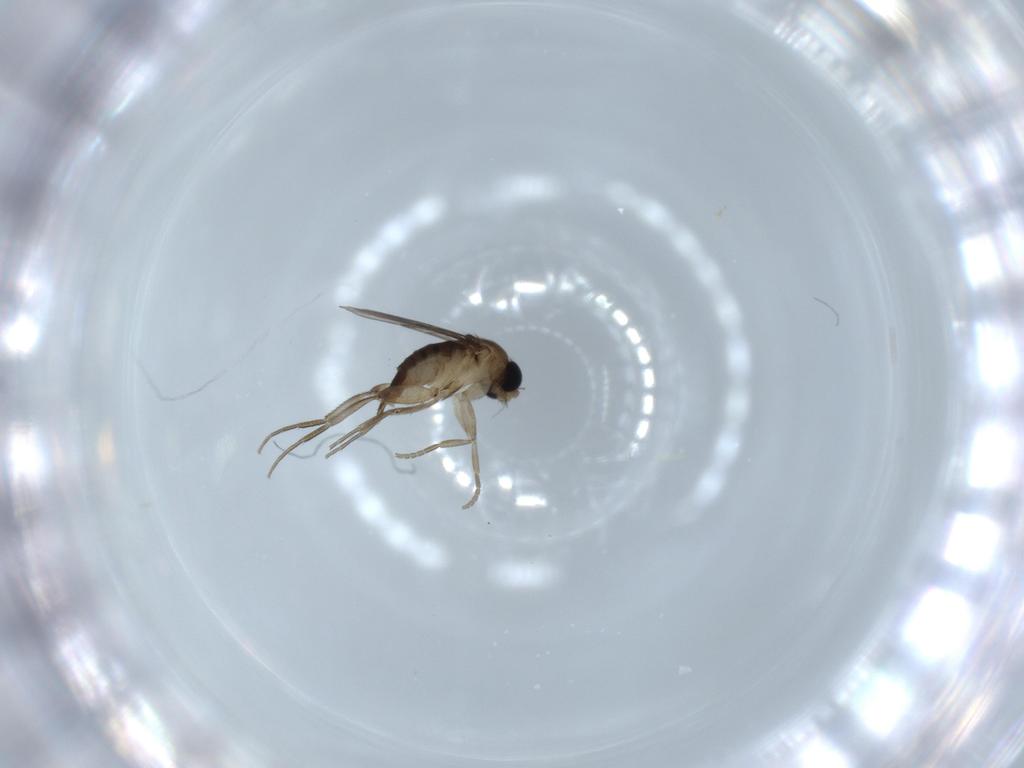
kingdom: Animalia
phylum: Arthropoda
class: Insecta
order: Diptera
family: Phoridae
